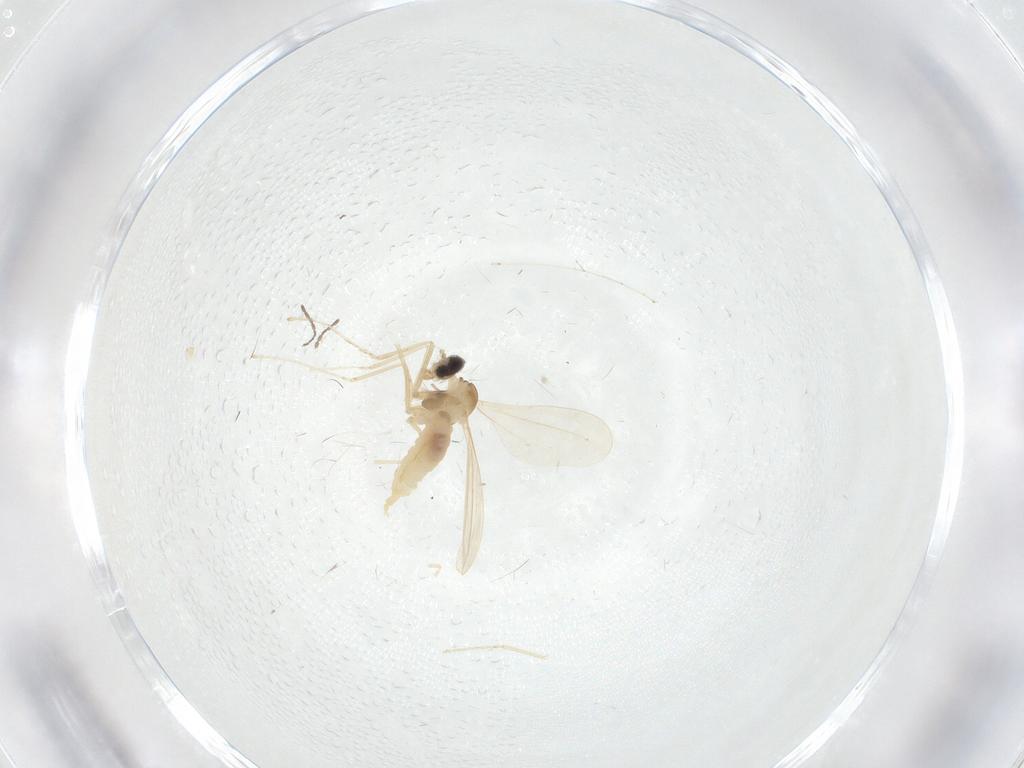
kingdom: Animalia
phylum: Arthropoda
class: Insecta
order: Diptera
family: Mycetophilidae
